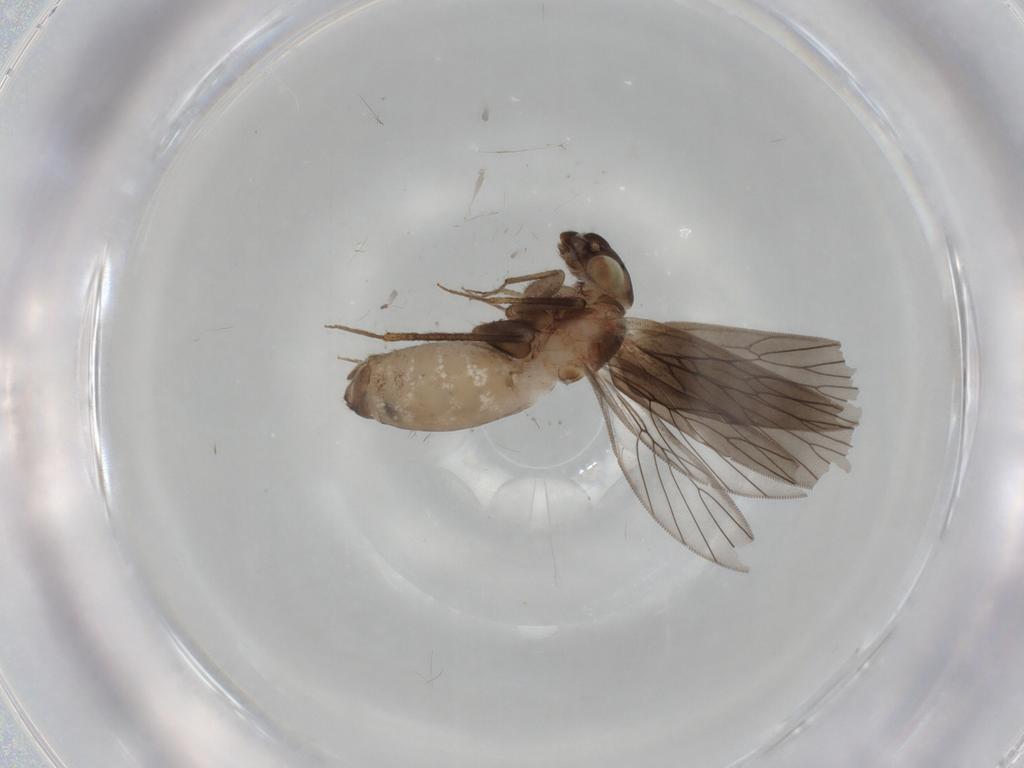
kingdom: Animalia
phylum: Arthropoda
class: Insecta
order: Psocodea
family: Lepidopsocidae
